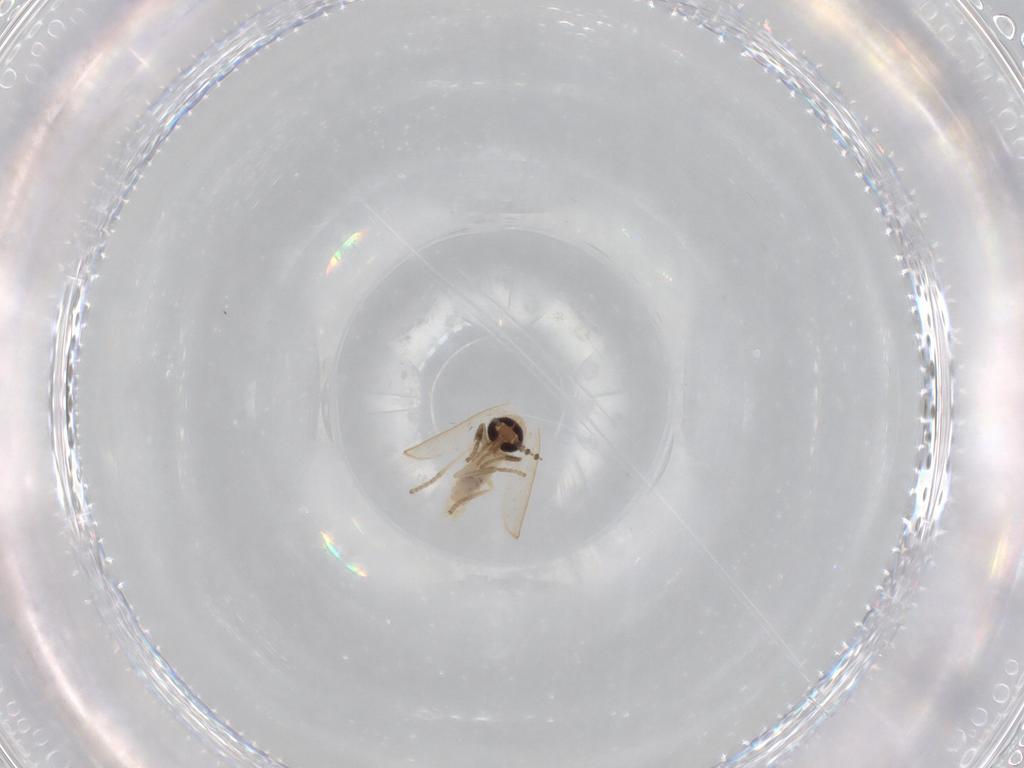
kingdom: Animalia
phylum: Arthropoda
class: Insecta
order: Diptera
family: Psychodidae
